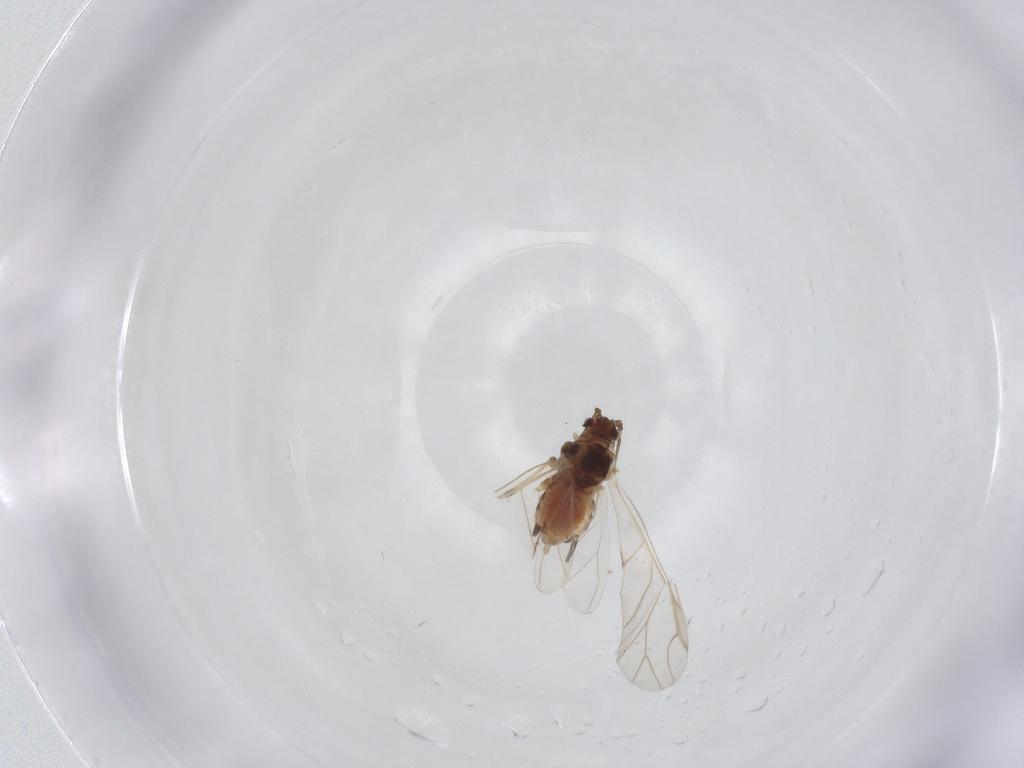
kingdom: Animalia
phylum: Arthropoda
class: Insecta
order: Hemiptera
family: Aphididae
